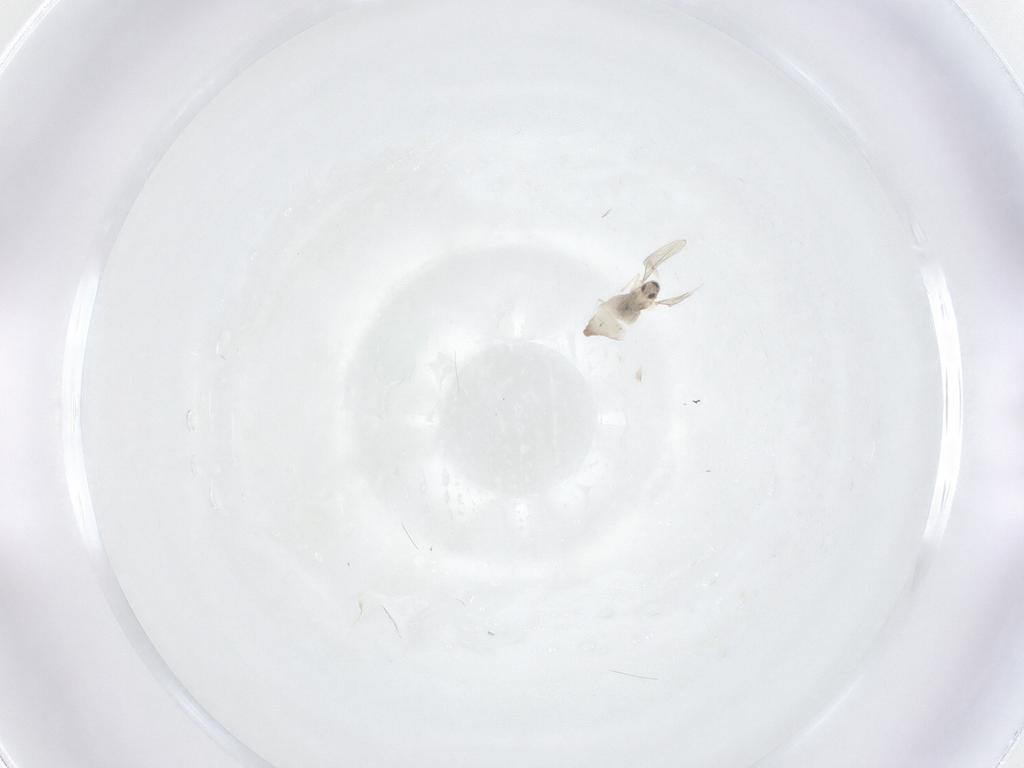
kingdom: Animalia
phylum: Arthropoda
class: Insecta
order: Diptera
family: Cecidomyiidae
